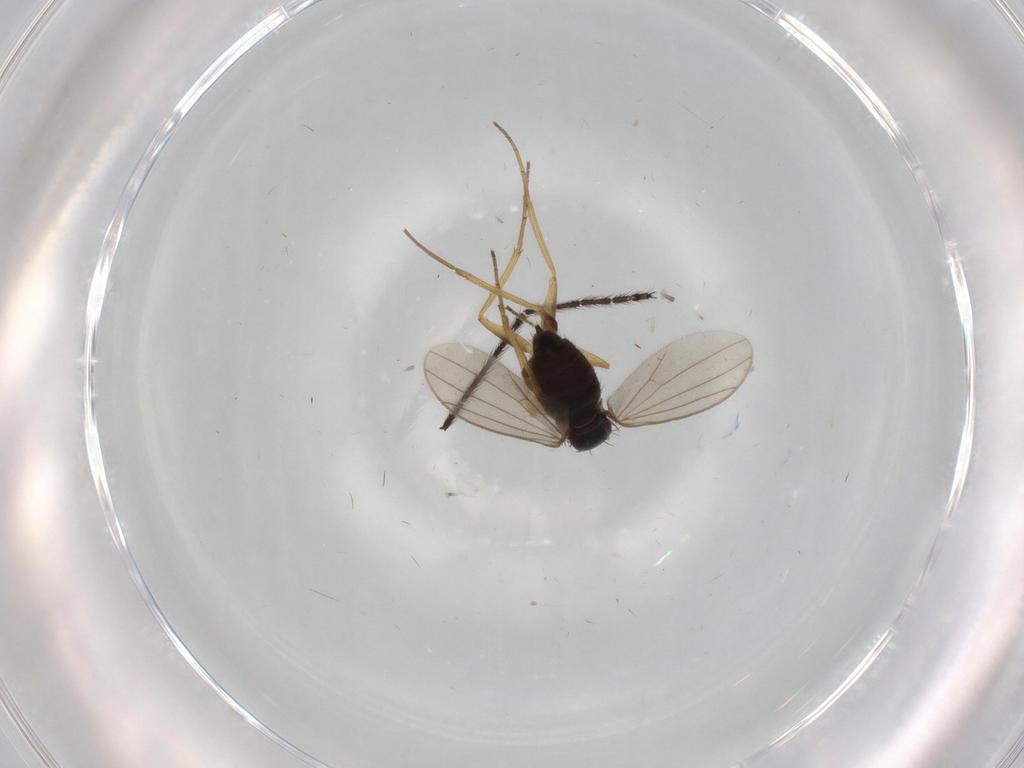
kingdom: Animalia
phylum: Arthropoda
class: Insecta
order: Diptera
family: Limoniidae
